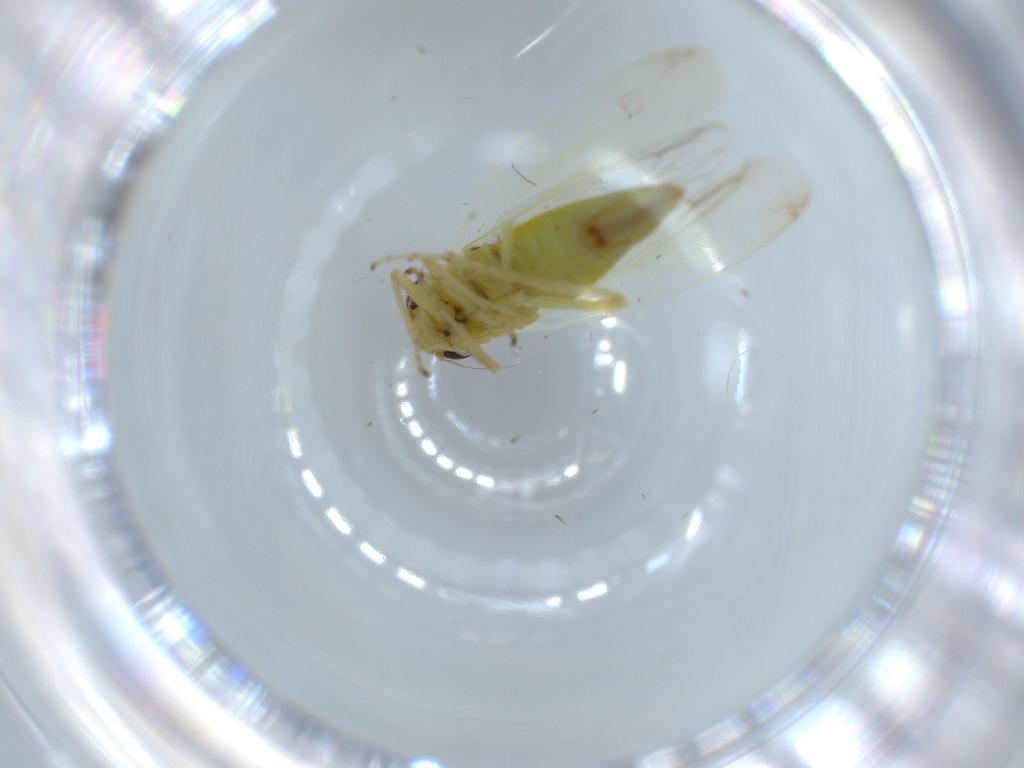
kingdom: Animalia
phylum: Arthropoda
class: Insecta
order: Hemiptera
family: Cicadellidae
